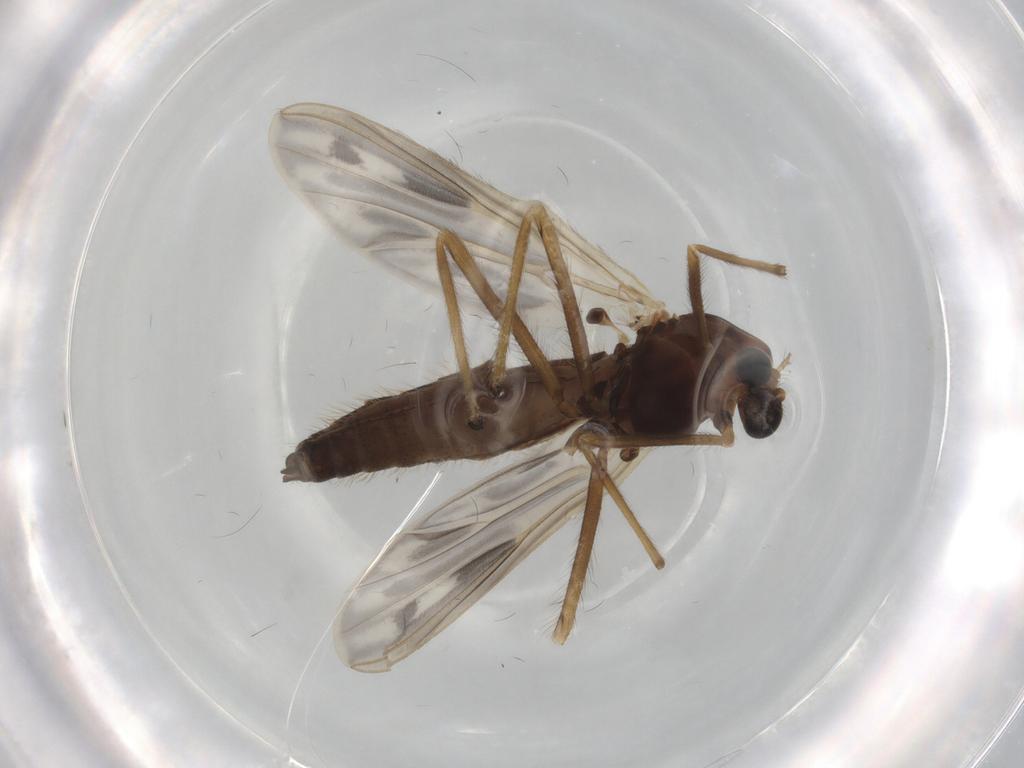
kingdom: Animalia
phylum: Arthropoda
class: Insecta
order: Diptera
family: Chironomidae
